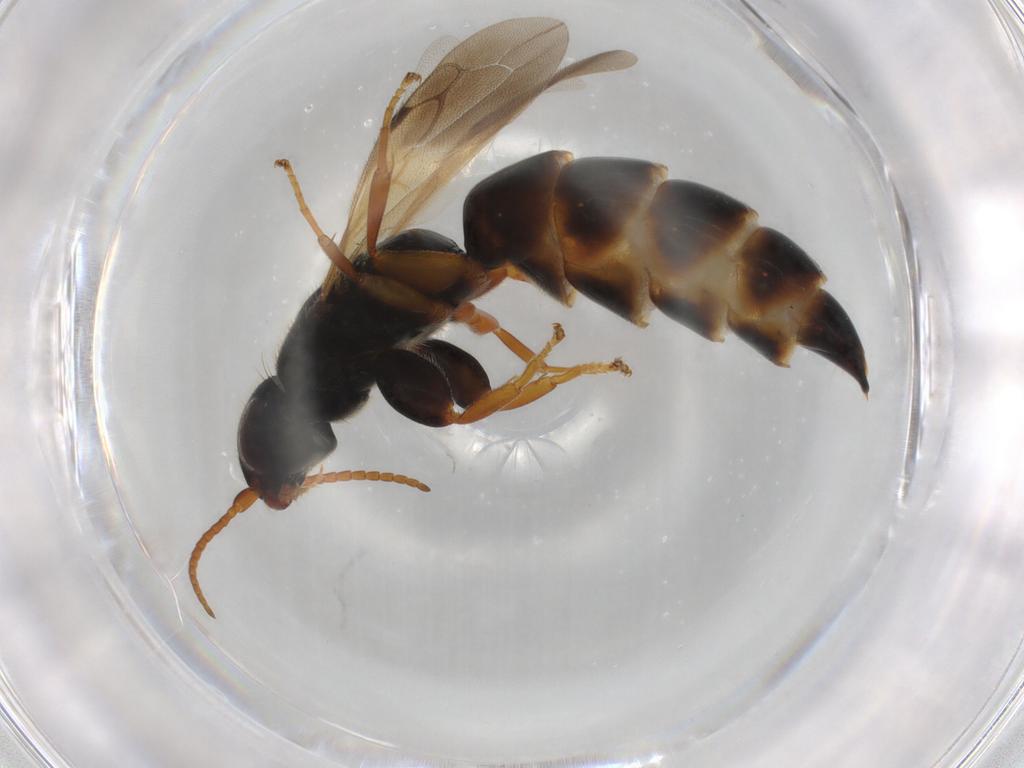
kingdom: Animalia
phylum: Arthropoda
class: Insecta
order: Hymenoptera
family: Bethylidae
